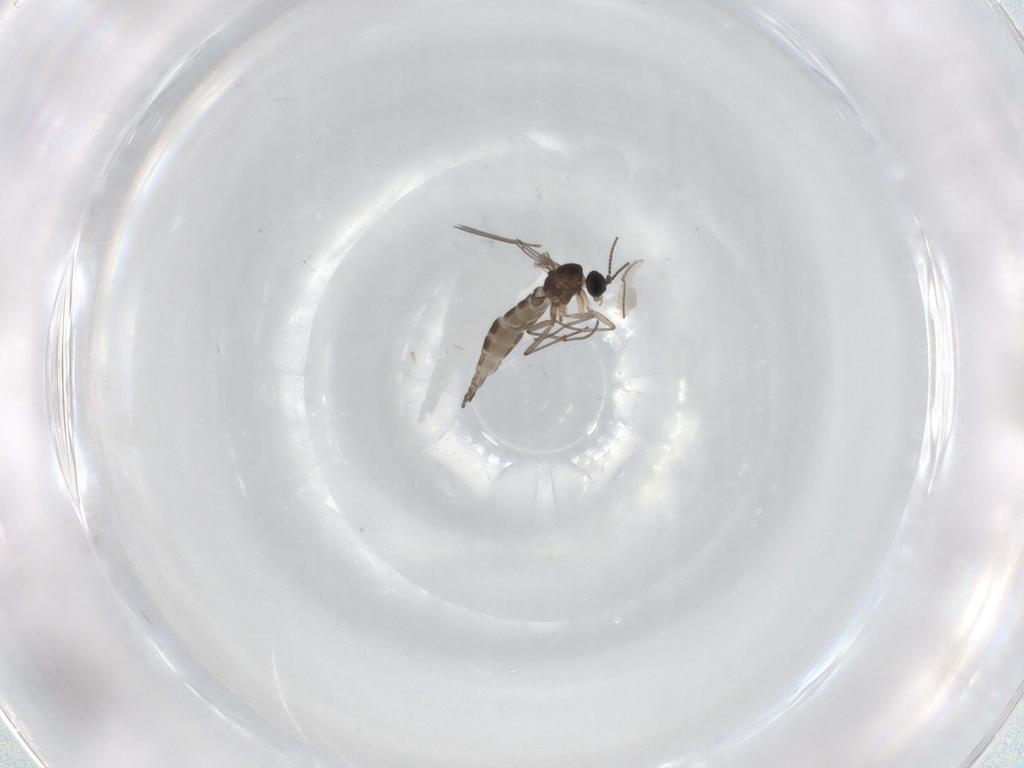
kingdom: Animalia
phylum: Arthropoda
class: Insecta
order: Diptera
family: Sciaridae
